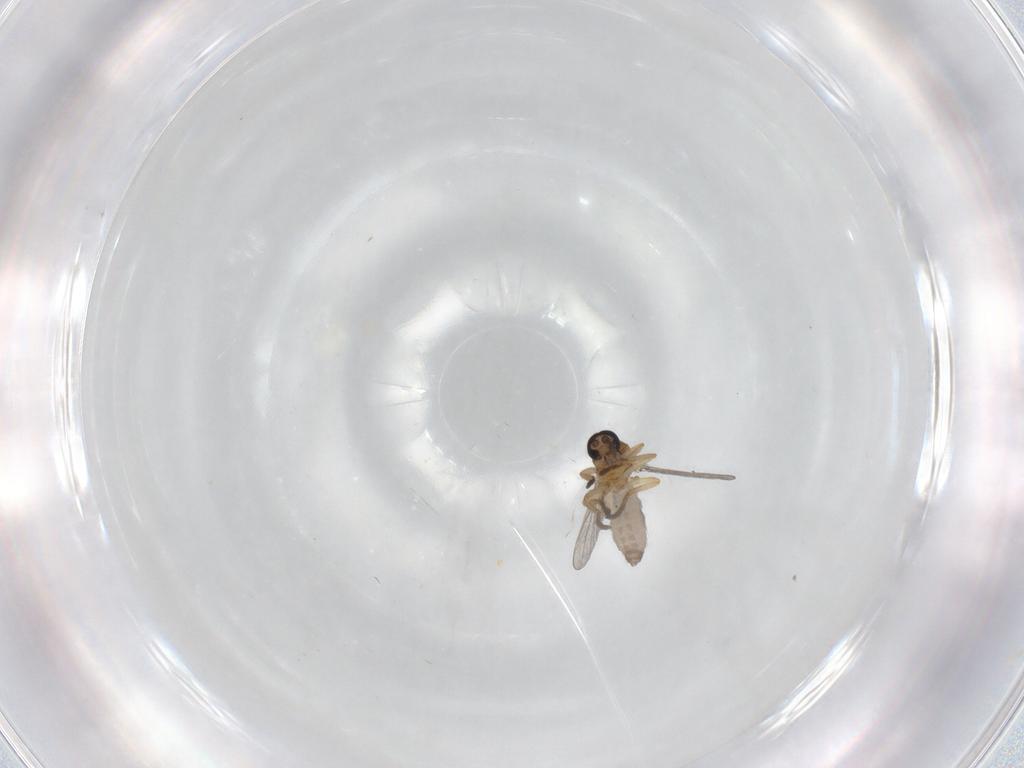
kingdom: Animalia
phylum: Arthropoda
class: Insecta
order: Diptera
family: Ceratopogonidae
